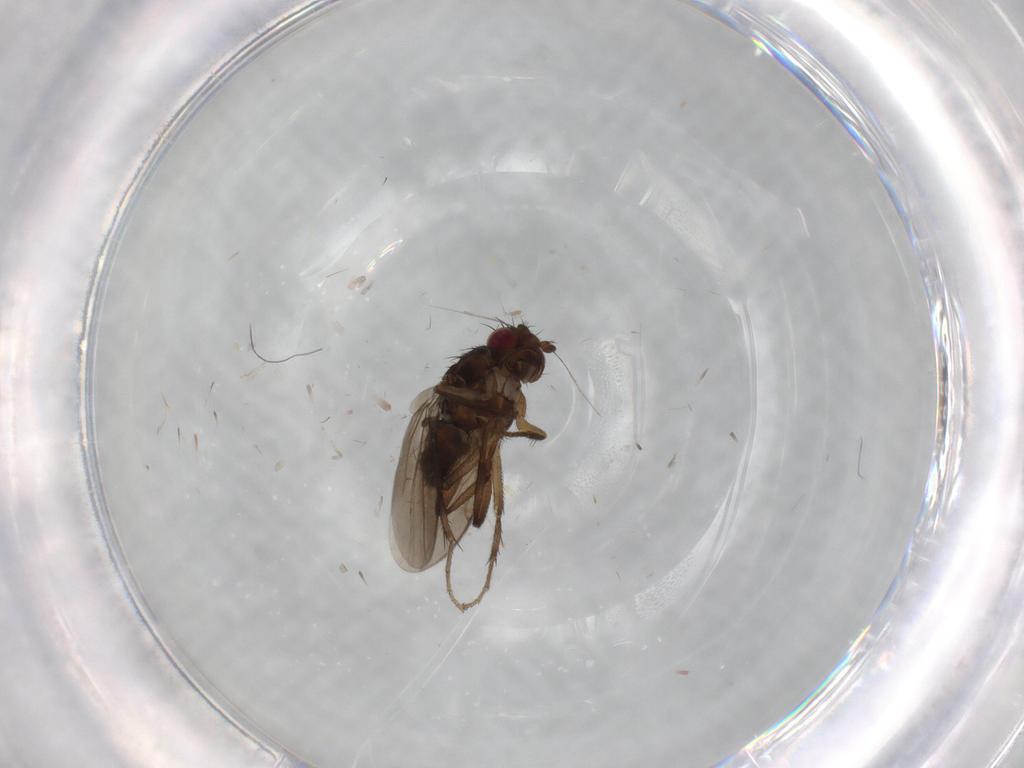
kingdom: Animalia
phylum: Arthropoda
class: Insecta
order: Diptera
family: Sphaeroceridae
